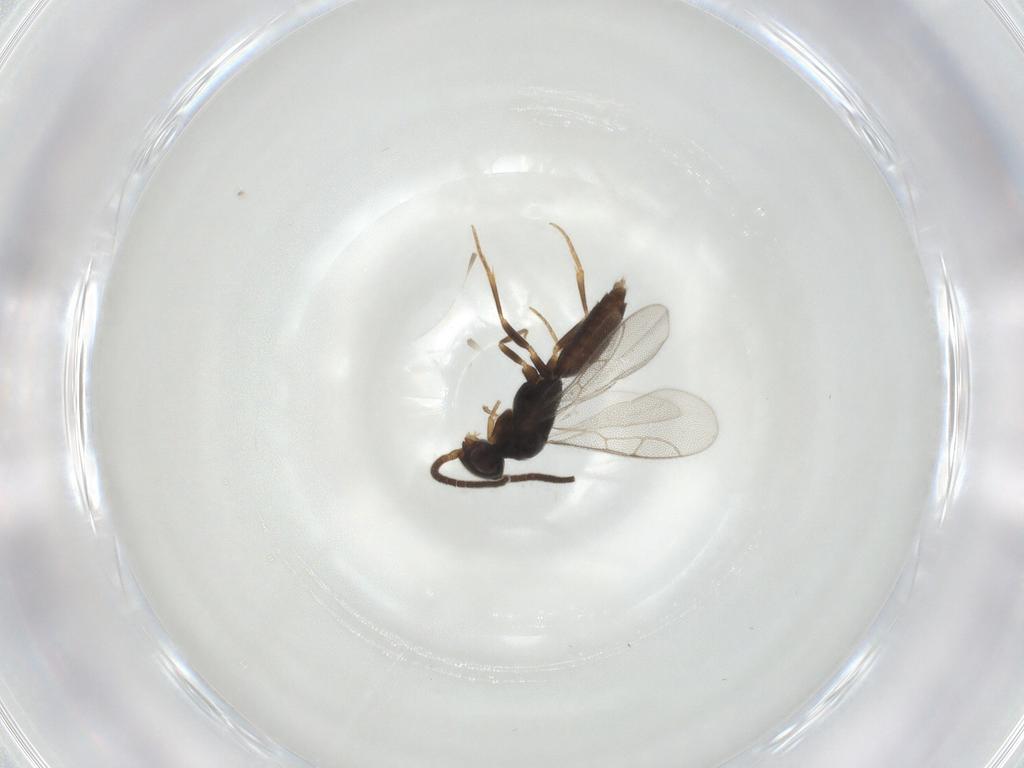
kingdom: Animalia
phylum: Arthropoda
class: Insecta
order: Hymenoptera
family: Sclerogibbidae
